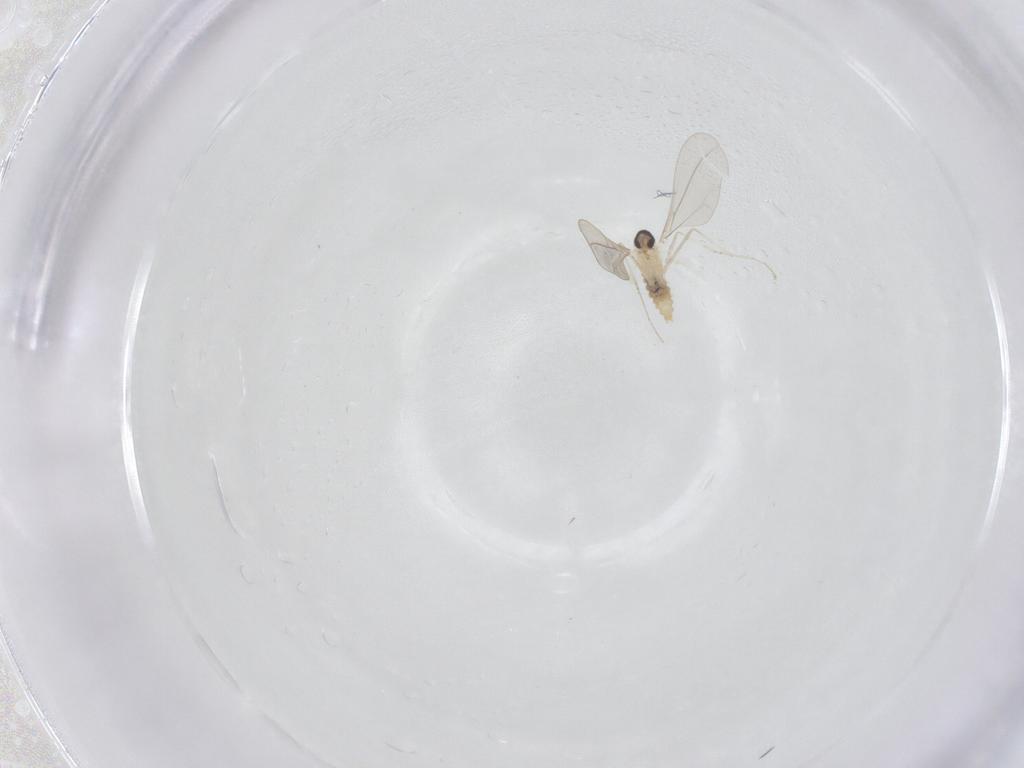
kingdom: Animalia
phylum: Arthropoda
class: Insecta
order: Diptera
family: Cecidomyiidae
